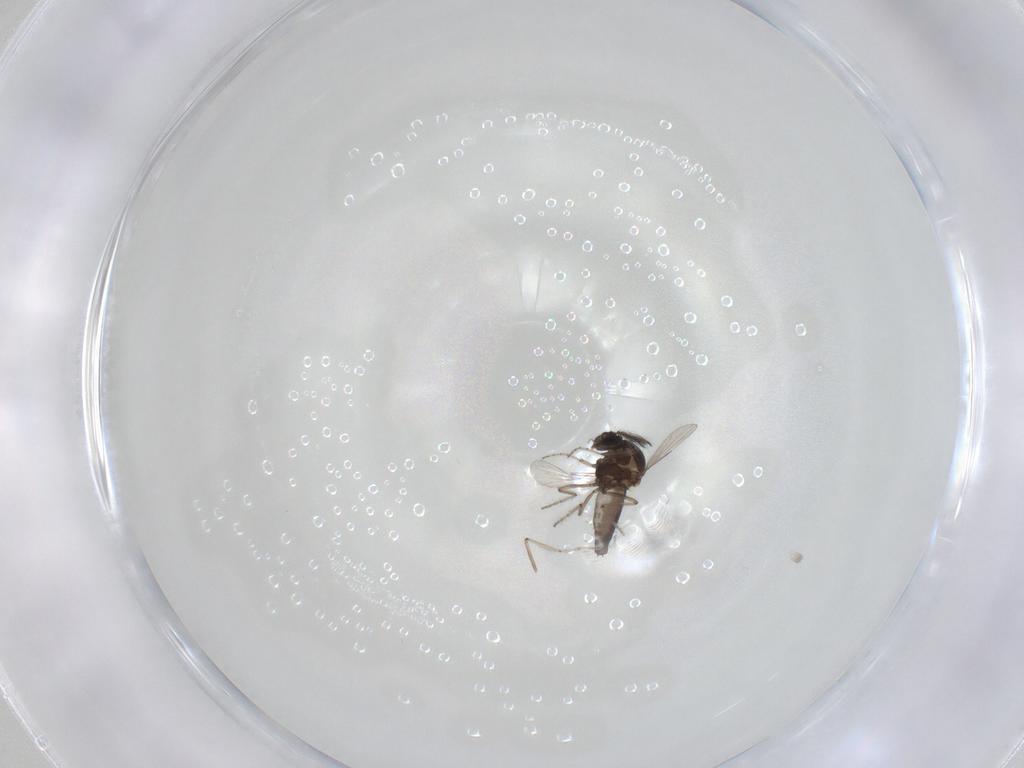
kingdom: Animalia
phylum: Arthropoda
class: Insecta
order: Diptera
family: Ceratopogonidae
